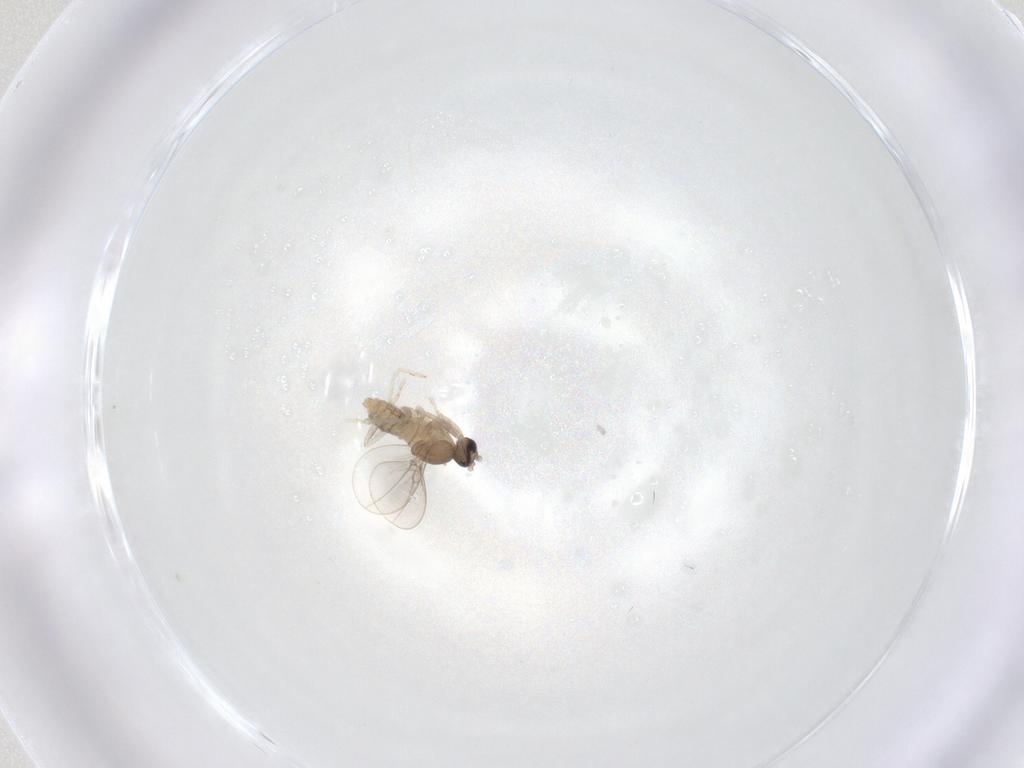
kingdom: Animalia
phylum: Arthropoda
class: Insecta
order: Diptera
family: Cecidomyiidae
